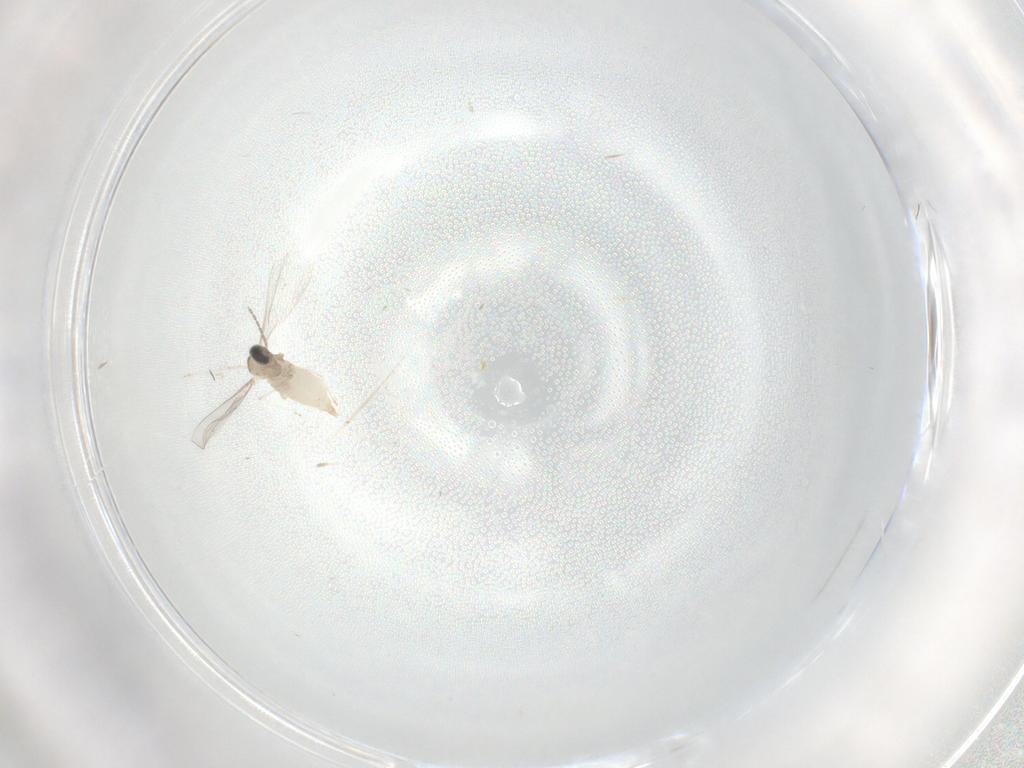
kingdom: Animalia
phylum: Arthropoda
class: Insecta
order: Diptera
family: Cecidomyiidae
